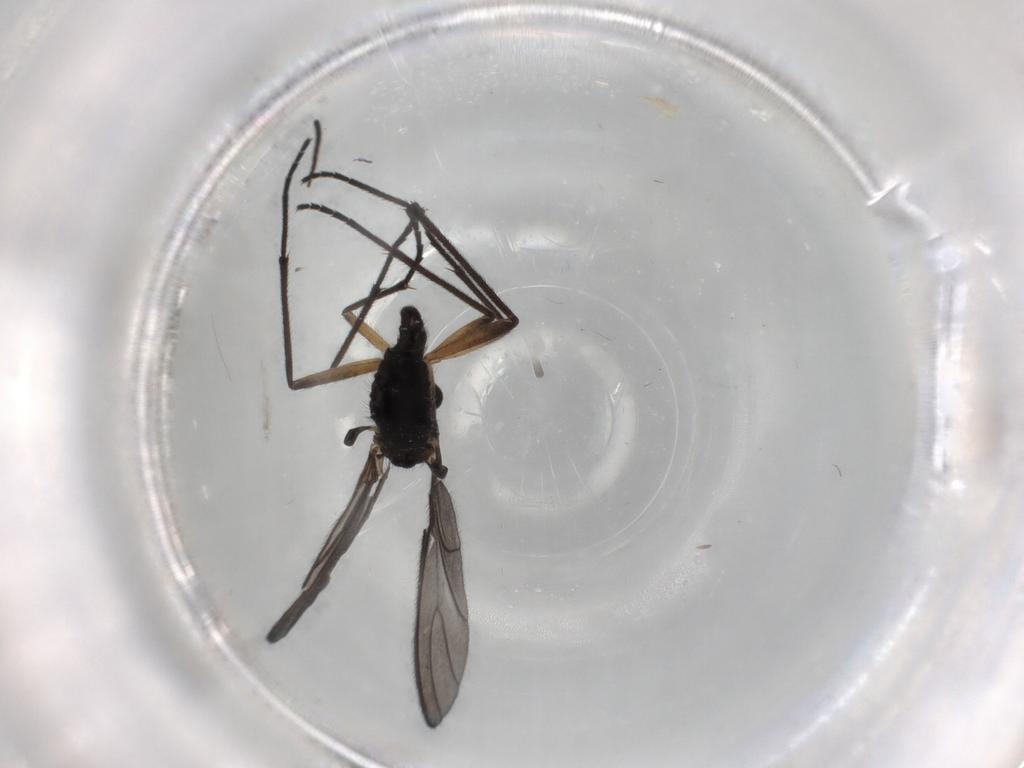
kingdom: Animalia
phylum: Arthropoda
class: Insecta
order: Diptera
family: Sciaridae
